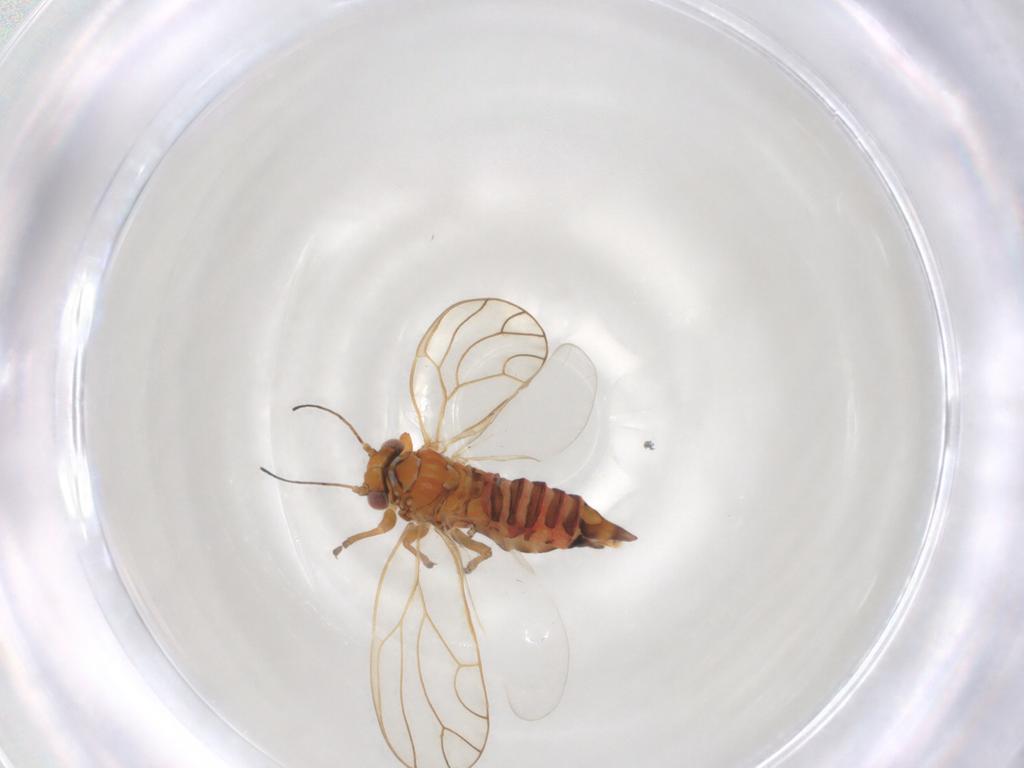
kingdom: Animalia
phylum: Arthropoda
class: Insecta
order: Hemiptera
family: Psyllidae
